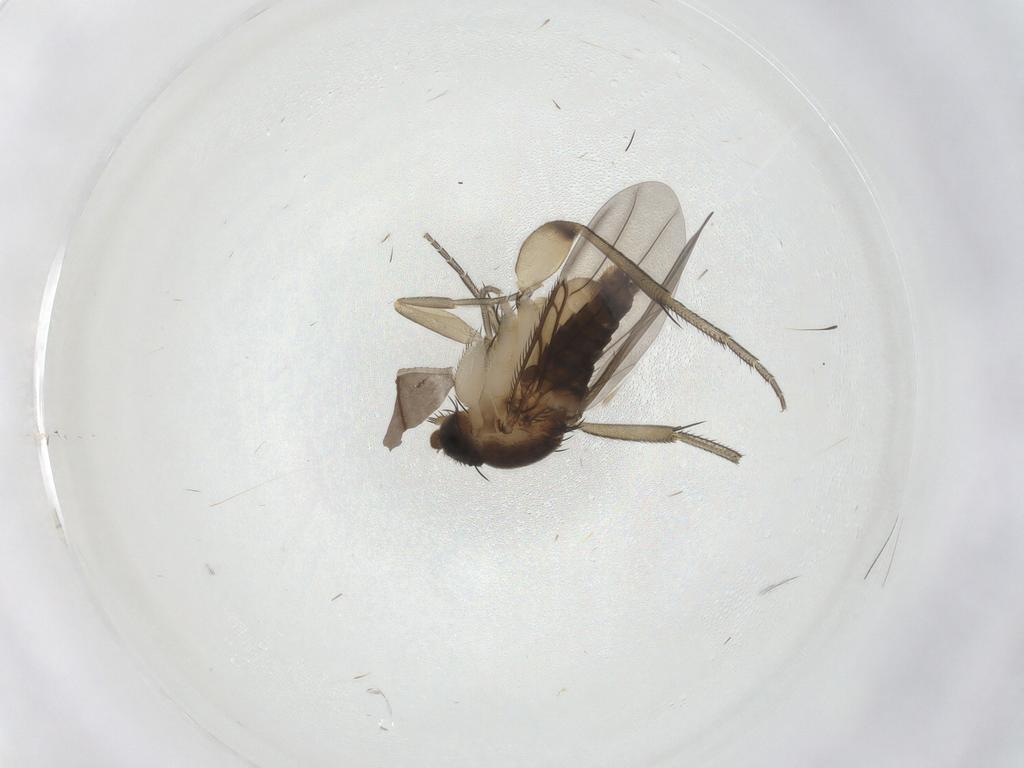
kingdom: Animalia
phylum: Arthropoda
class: Insecta
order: Diptera
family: Phoridae
